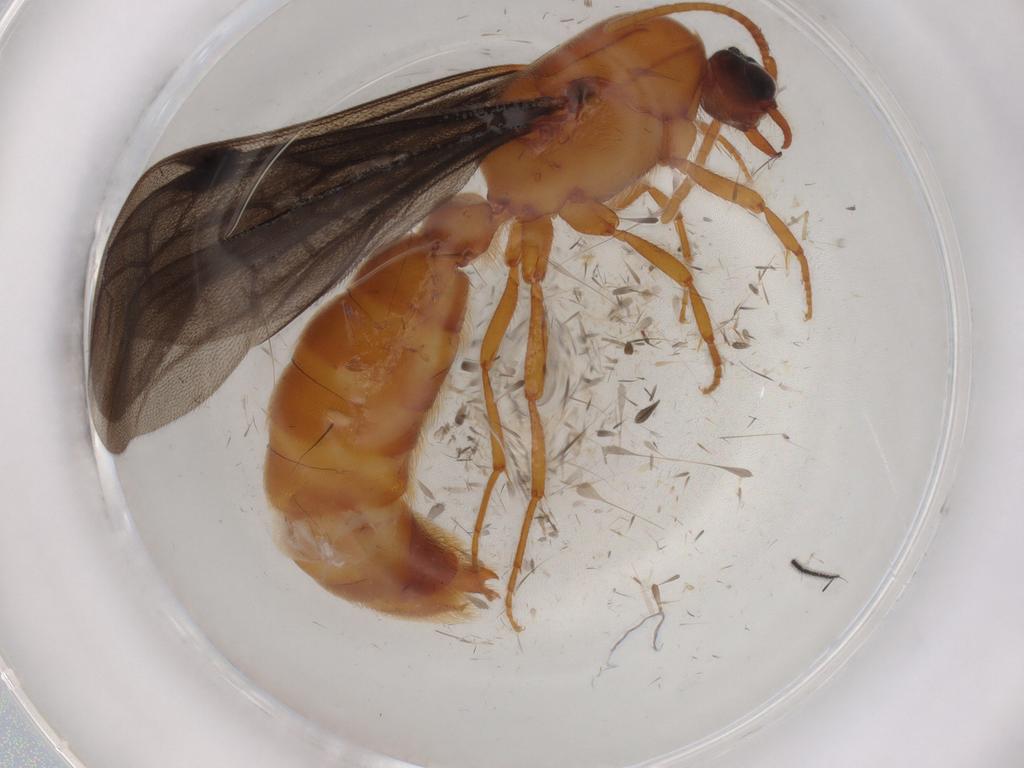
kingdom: Animalia
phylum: Arthropoda
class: Insecta
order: Hymenoptera
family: Formicidae
